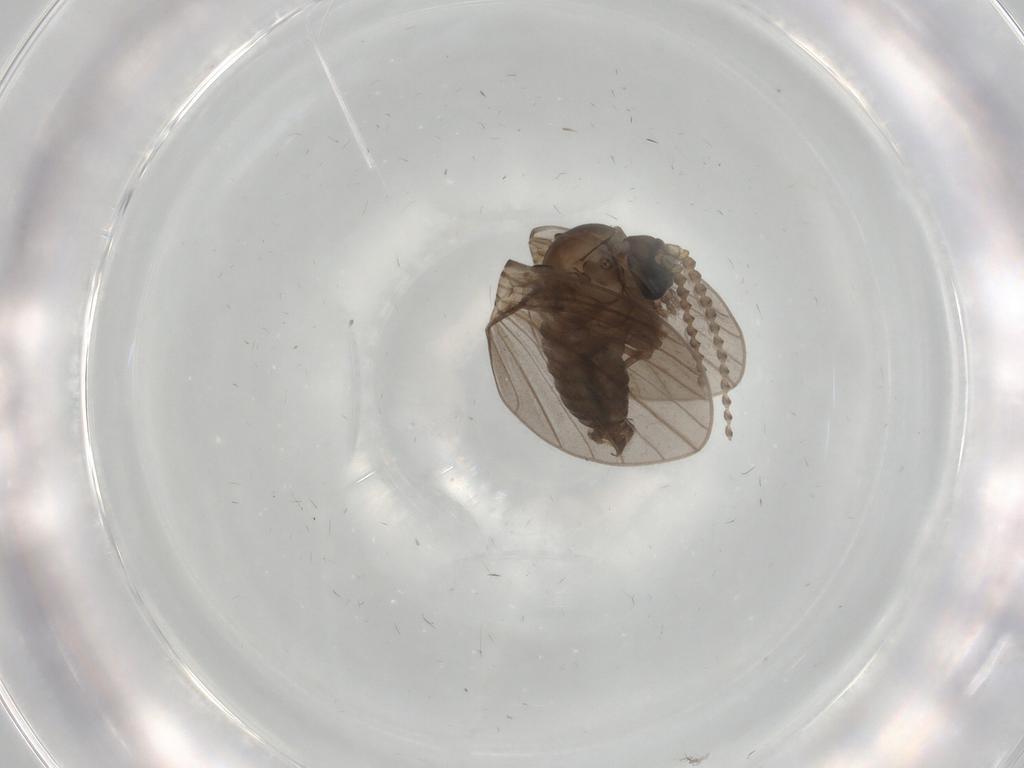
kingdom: Animalia
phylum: Arthropoda
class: Insecta
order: Diptera
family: Cecidomyiidae
